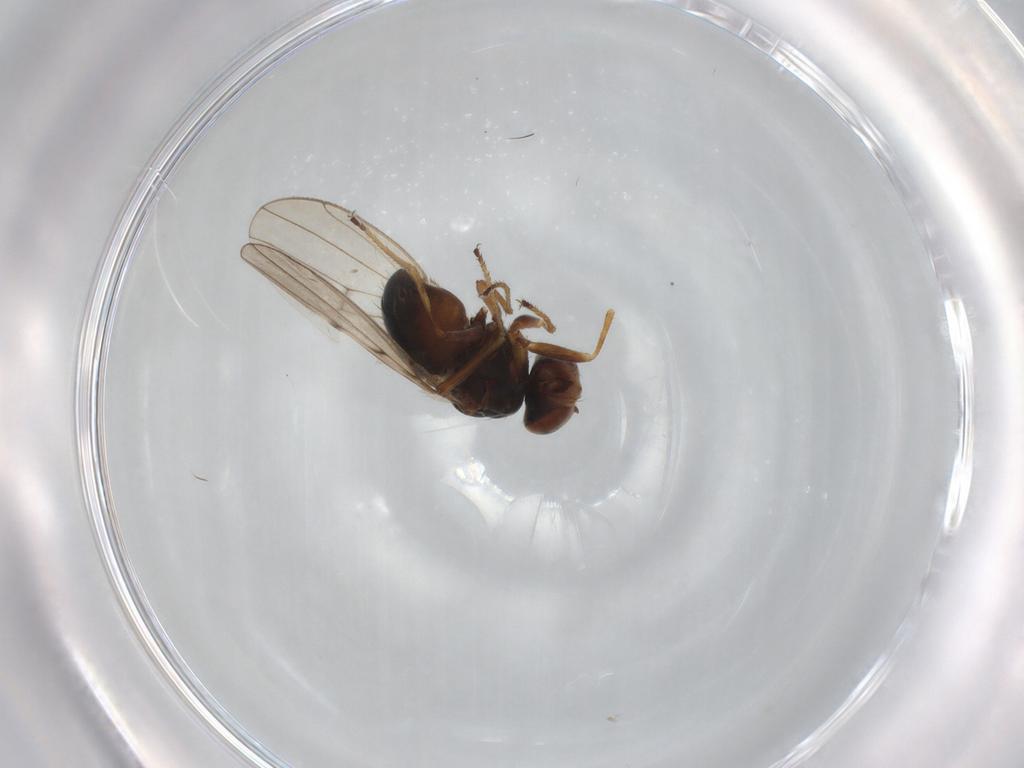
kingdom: Animalia
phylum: Arthropoda
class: Insecta
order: Diptera
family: Ephydridae
